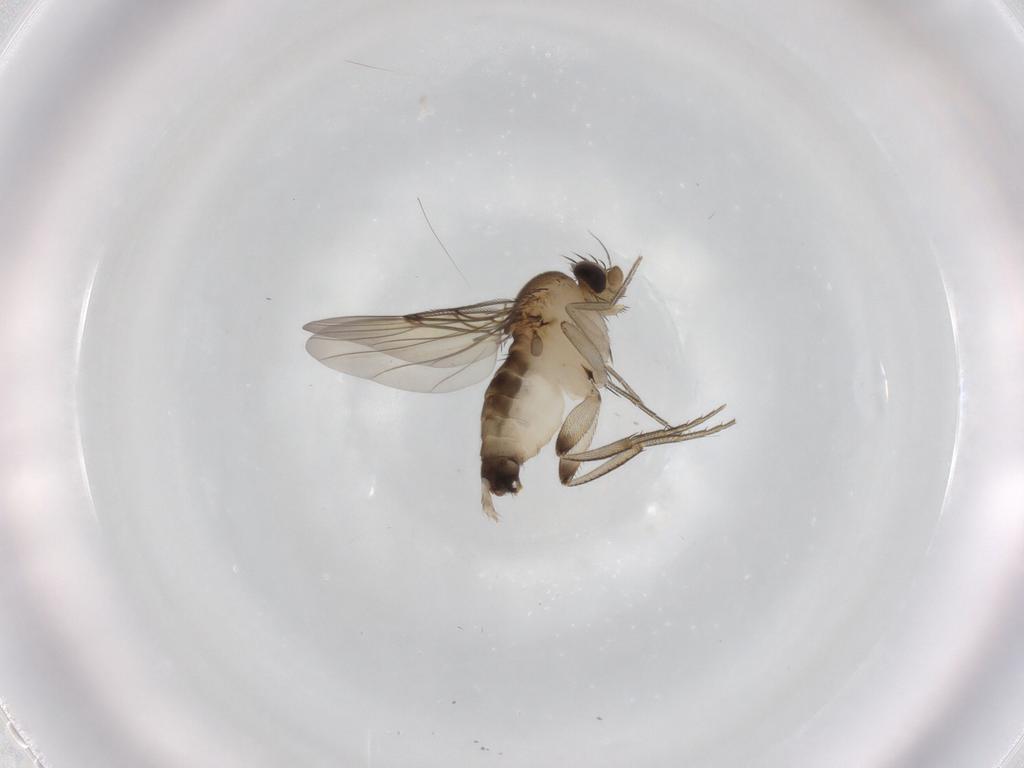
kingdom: Animalia
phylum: Arthropoda
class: Insecta
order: Diptera
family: Phoridae
